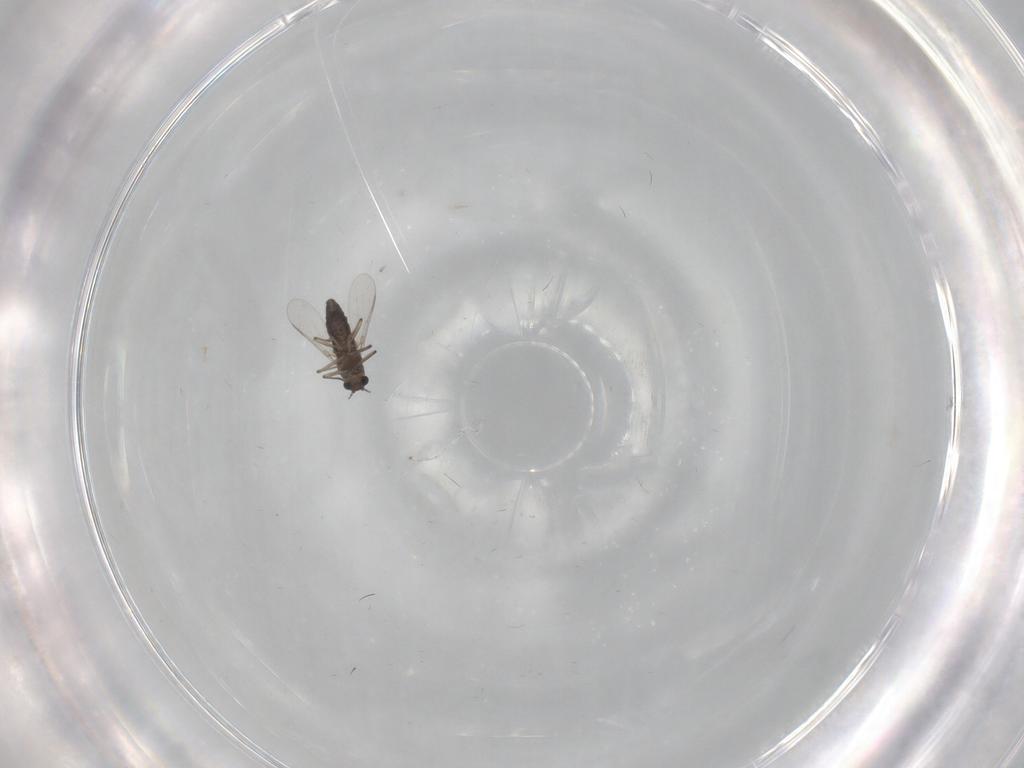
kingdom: Animalia
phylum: Arthropoda
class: Insecta
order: Diptera
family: Chironomidae
